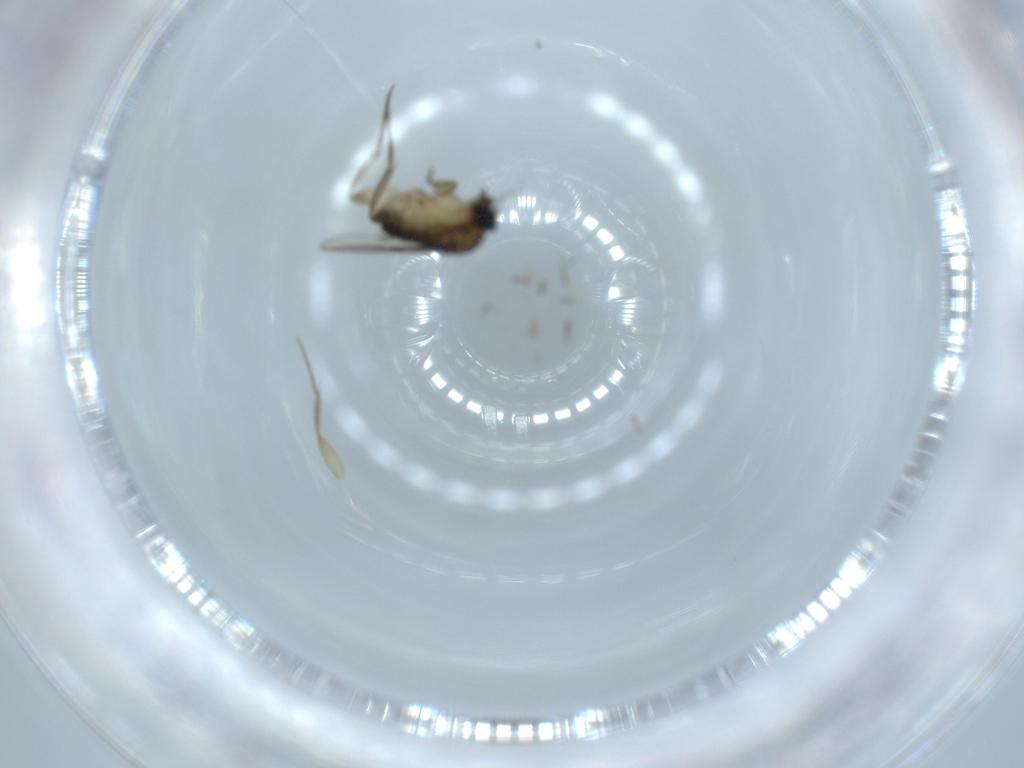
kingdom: Animalia
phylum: Arthropoda
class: Insecta
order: Diptera
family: Phoridae
